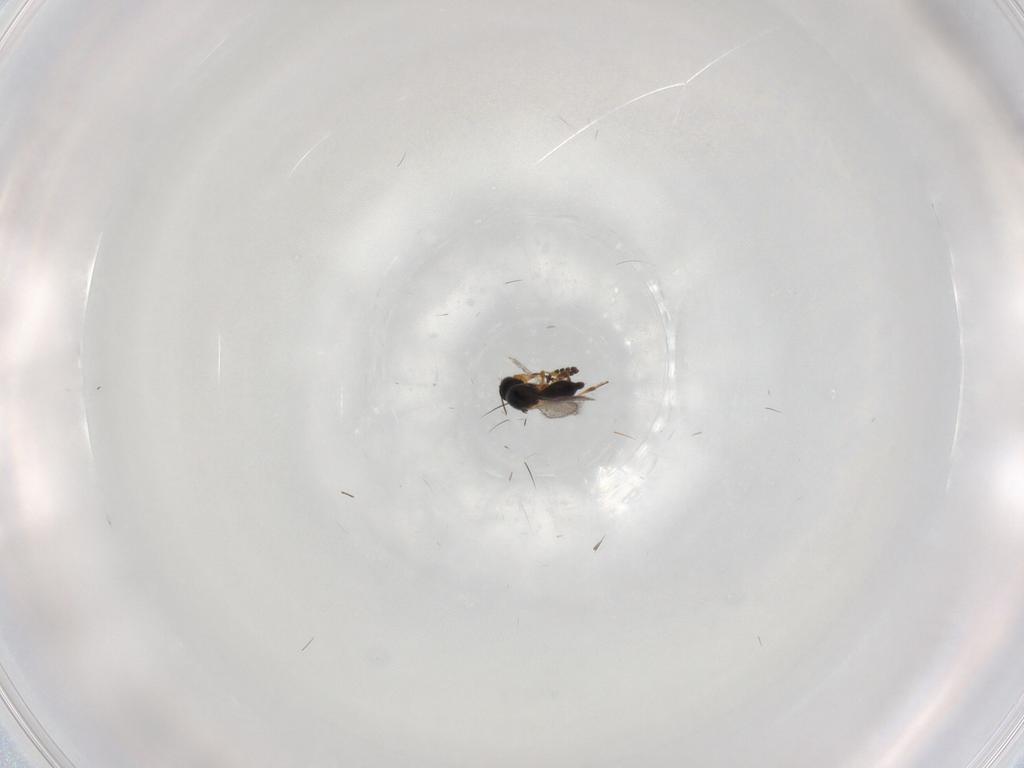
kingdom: Animalia
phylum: Arthropoda
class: Insecta
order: Hymenoptera
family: Platygastridae
